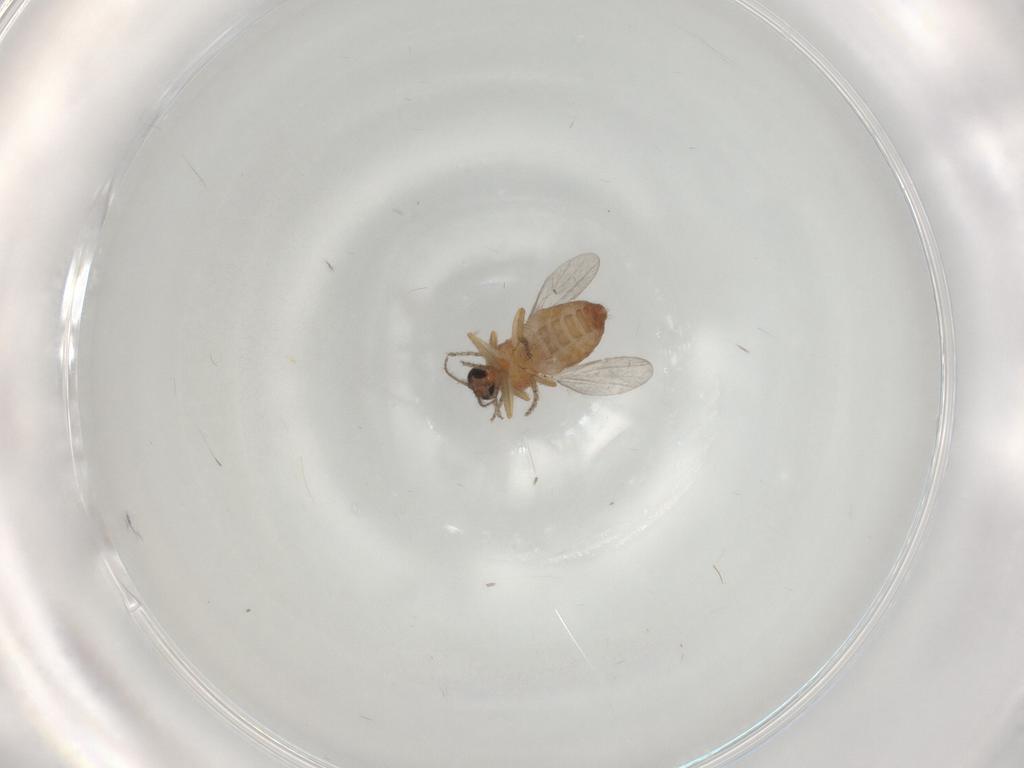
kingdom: Animalia
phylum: Arthropoda
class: Insecta
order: Diptera
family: Ceratopogonidae
